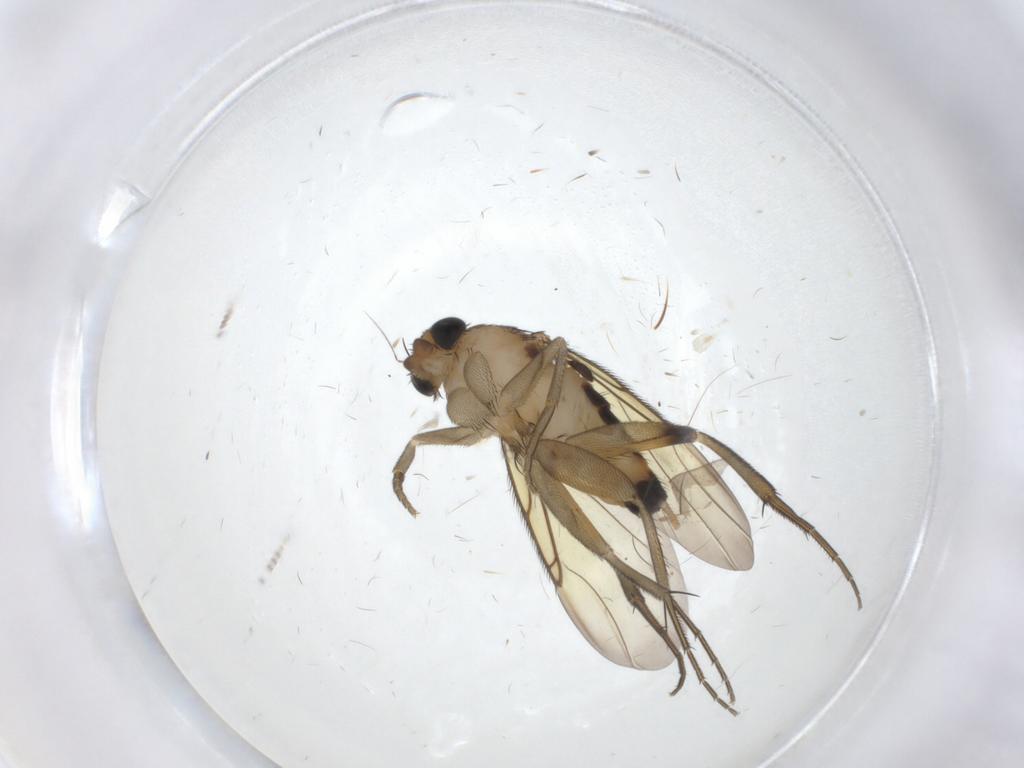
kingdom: Animalia
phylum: Arthropoda
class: Insecta
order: Diptera
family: Phoridae
